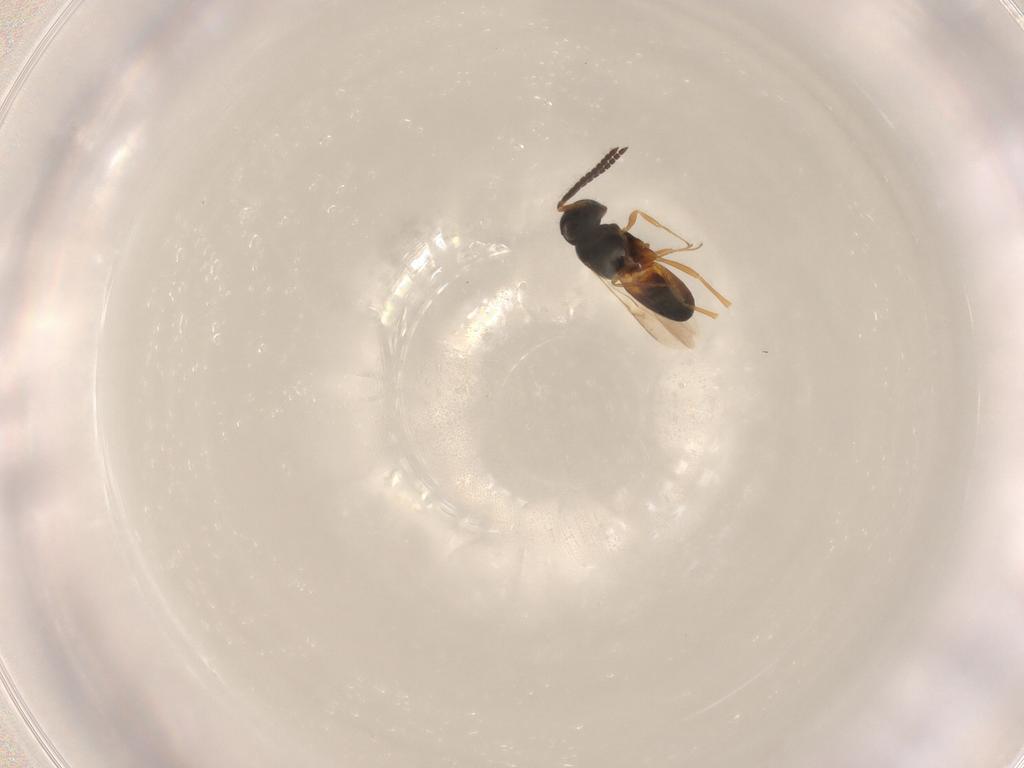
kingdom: Animalia
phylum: Arthropoda
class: Insecta
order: Hymenoptera
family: Scelionidae
